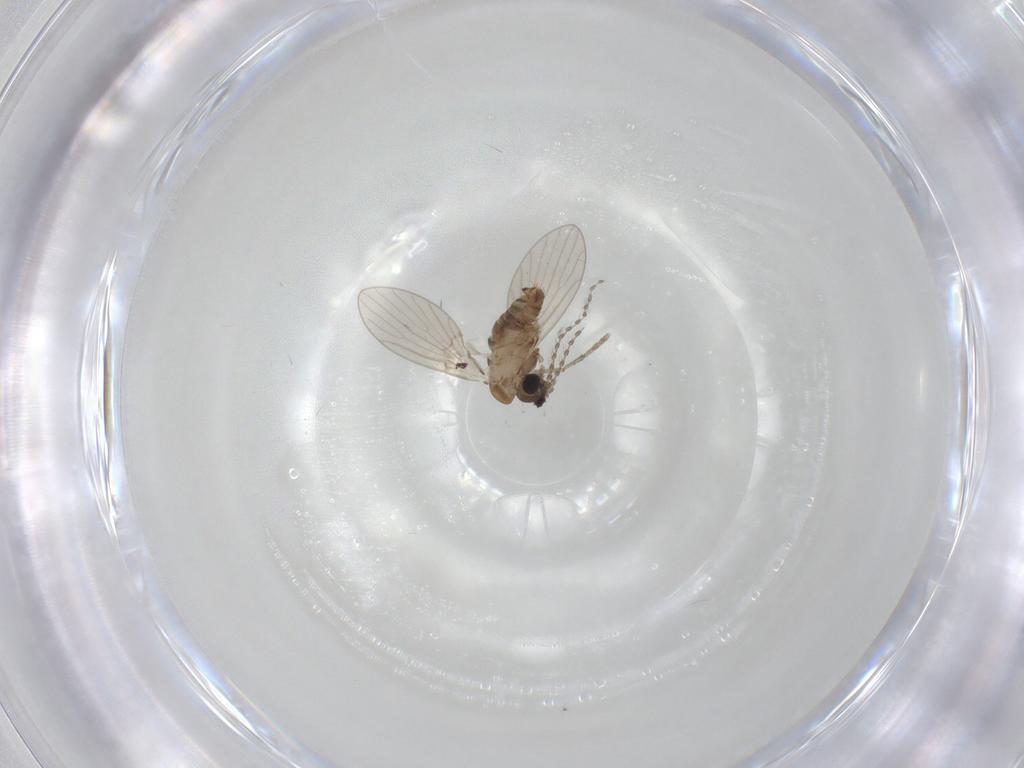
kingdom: Animalia
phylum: Arthropoda
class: Insecta
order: Diptera
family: Psychodidae
